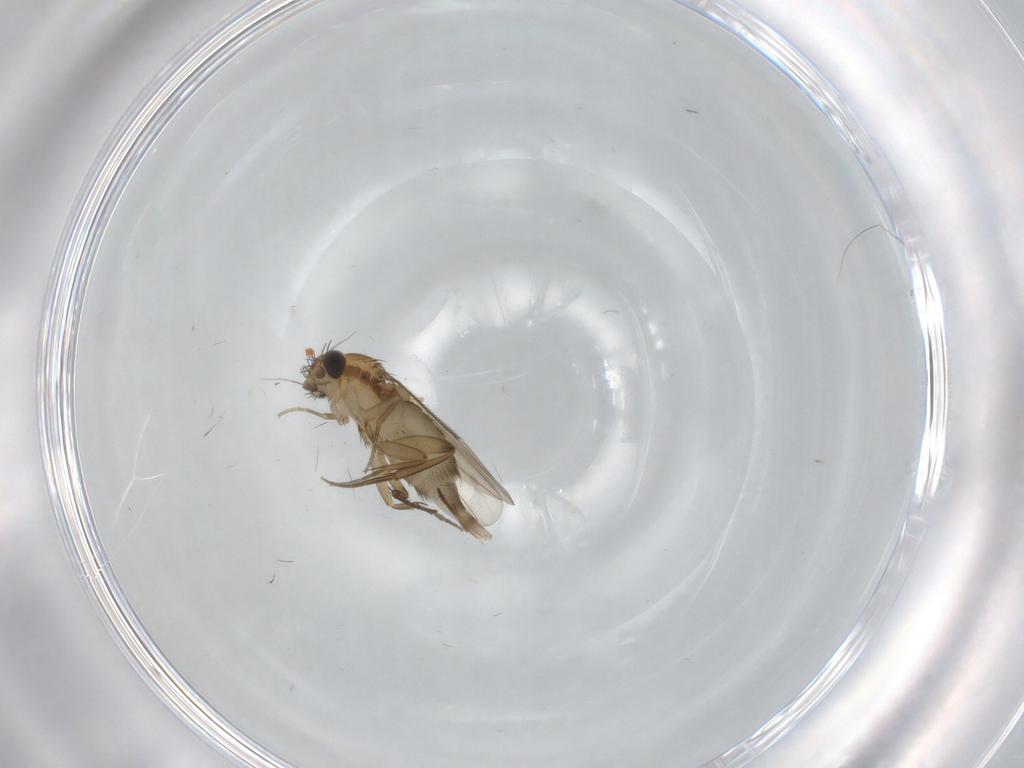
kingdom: Animalia
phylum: Arthropoda
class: Insecta
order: Diptera
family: Phoridae
